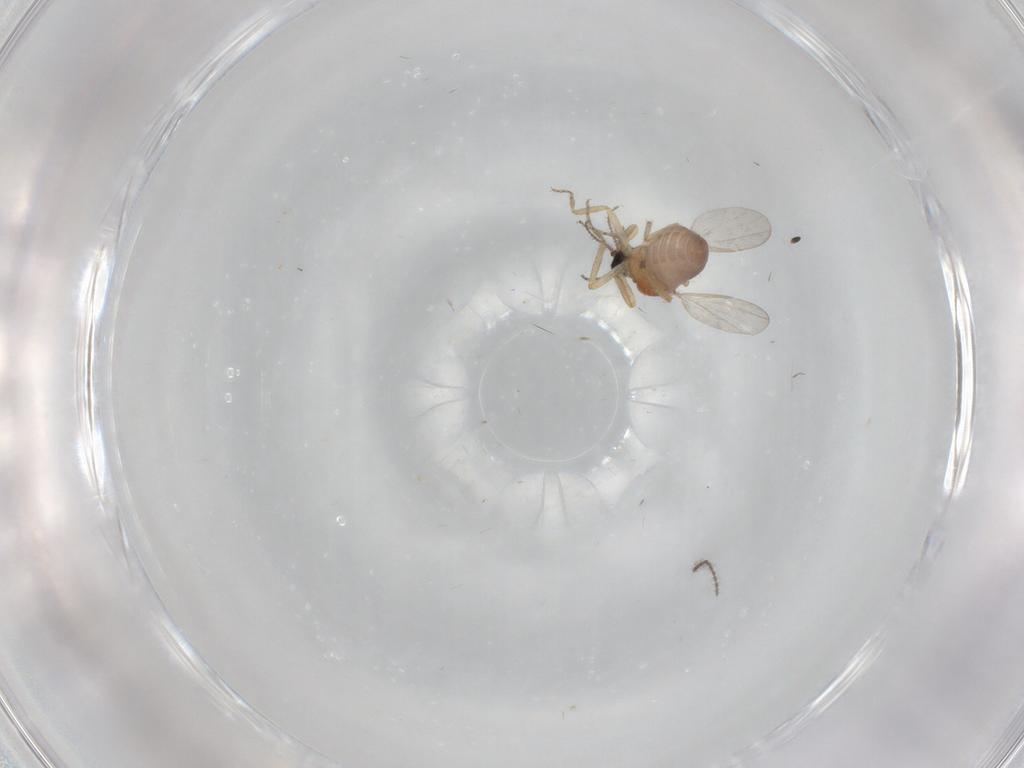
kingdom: Animalia
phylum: Arthropoda
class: Insecta
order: Diptera
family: Ceratopogonidae
